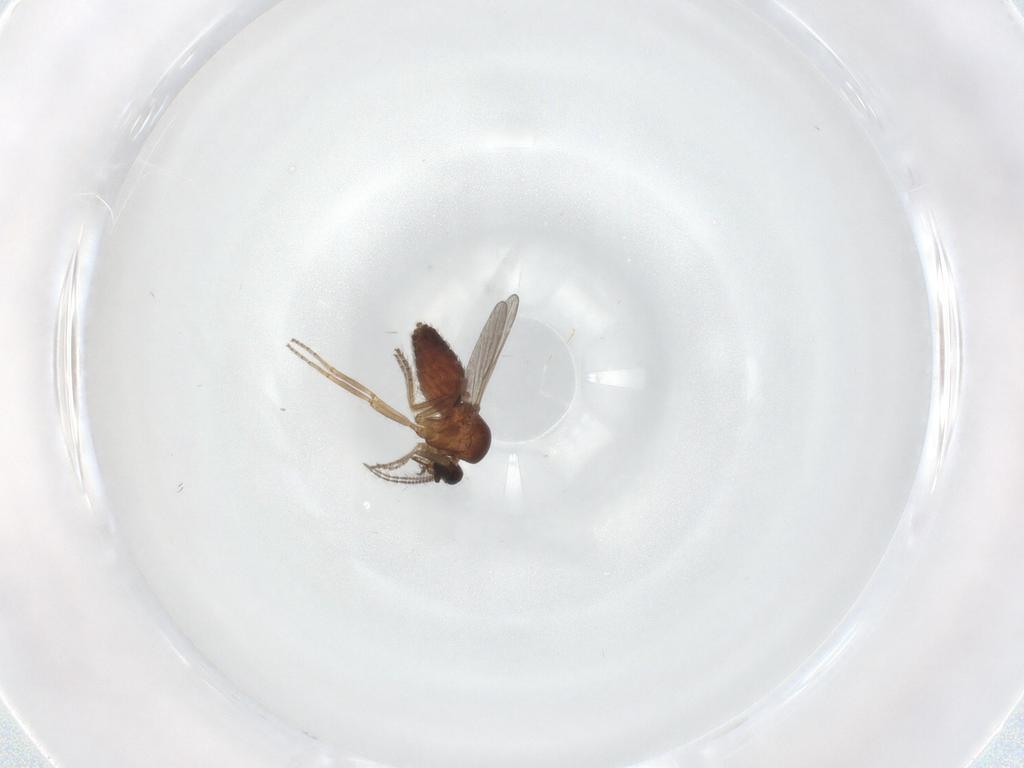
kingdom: Animalia
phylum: Arthropoda
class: Insecta
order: Diptera
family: Ceratopogonidae
